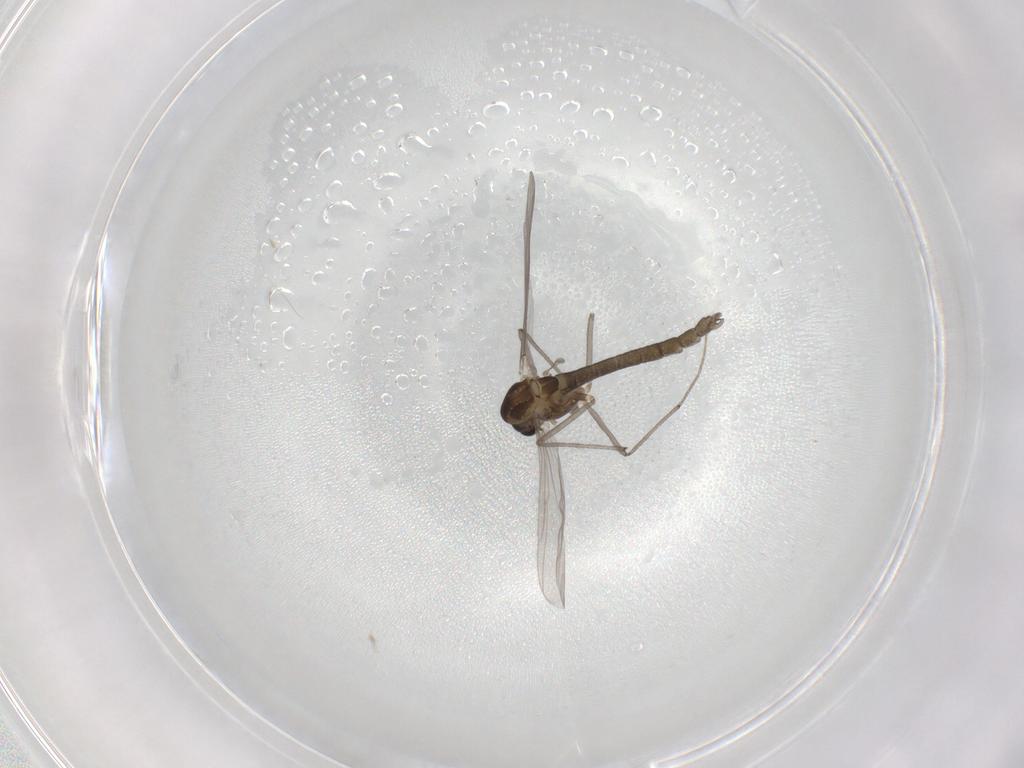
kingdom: Animalia
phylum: Arthropoda
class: Insecta
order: Diptera
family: Chironomidae
